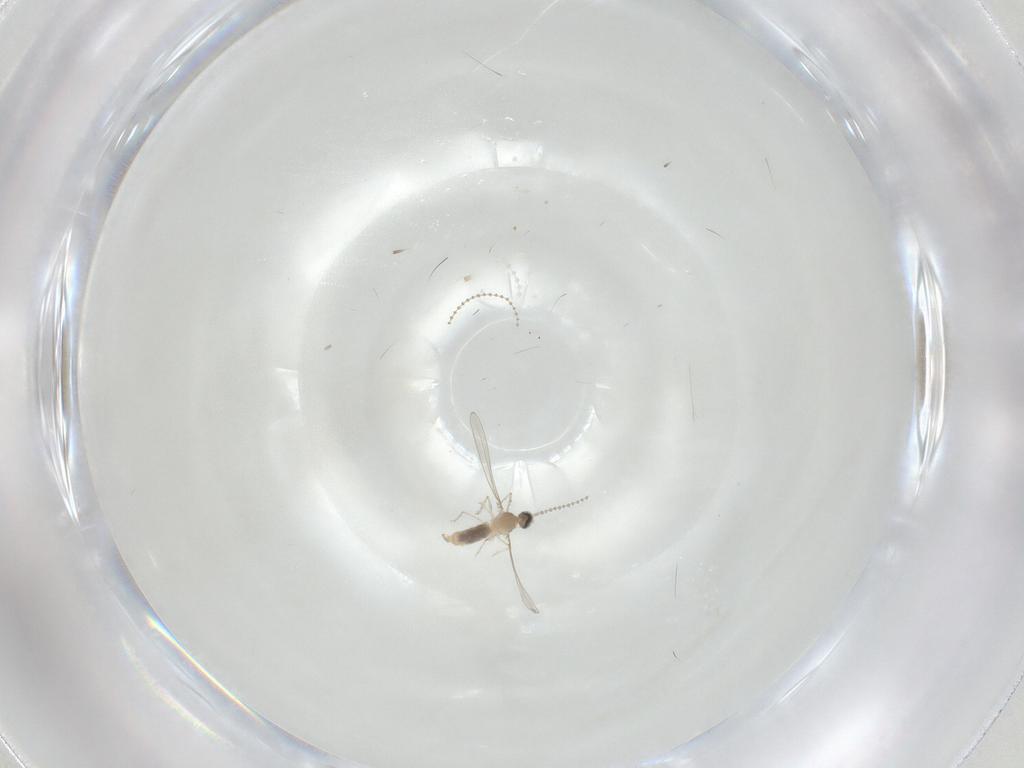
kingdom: Animalia
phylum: Arthropoda
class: Insecta
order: Diptera
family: Cecidomyiidae
